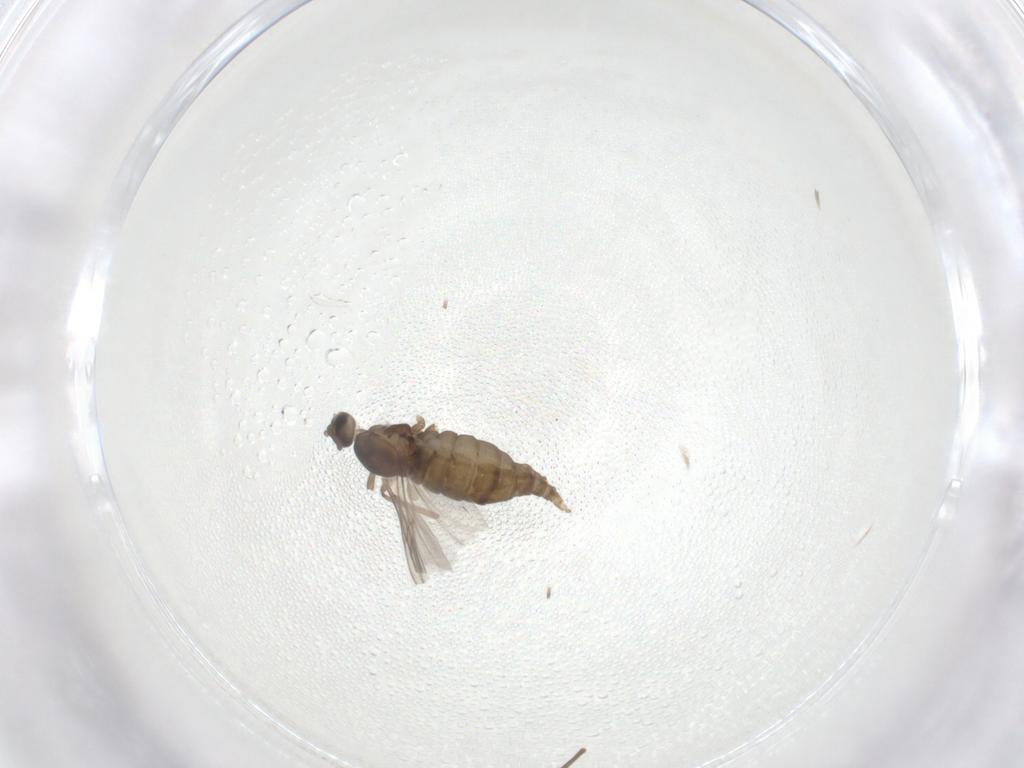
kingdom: Animalia
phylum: Arthropoda
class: Insecta
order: Diptera
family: Cecidomyiidae
